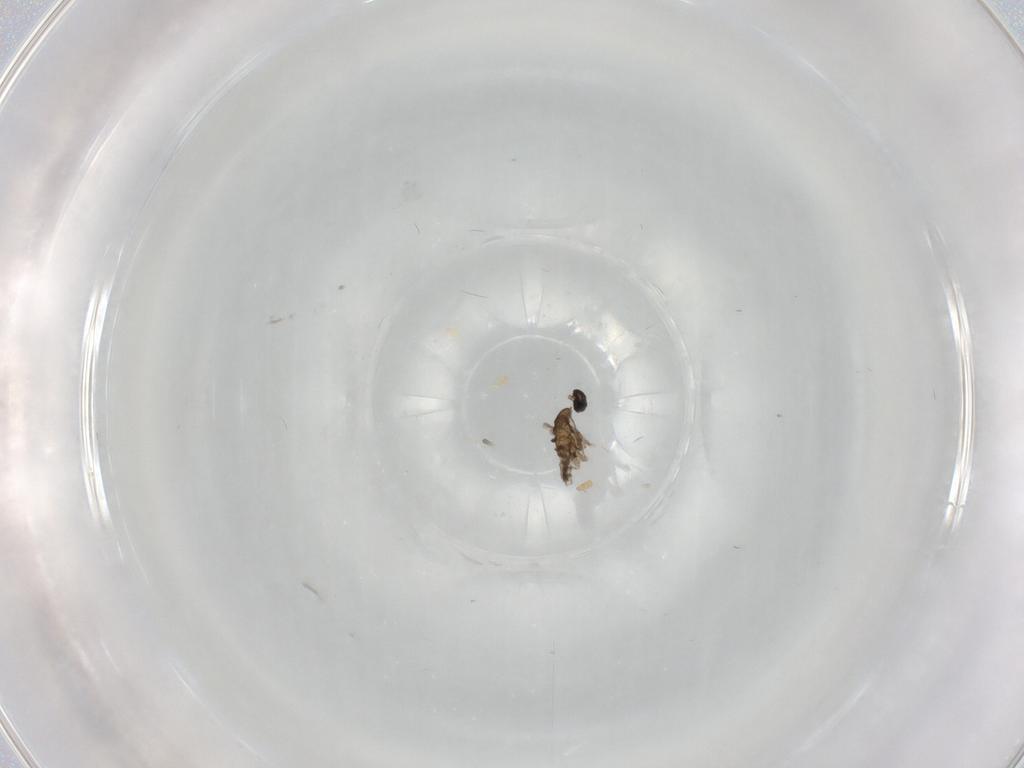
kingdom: Animalia
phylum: Arthropoda
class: Insecta
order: Diptera
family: Cecidomyiidae
